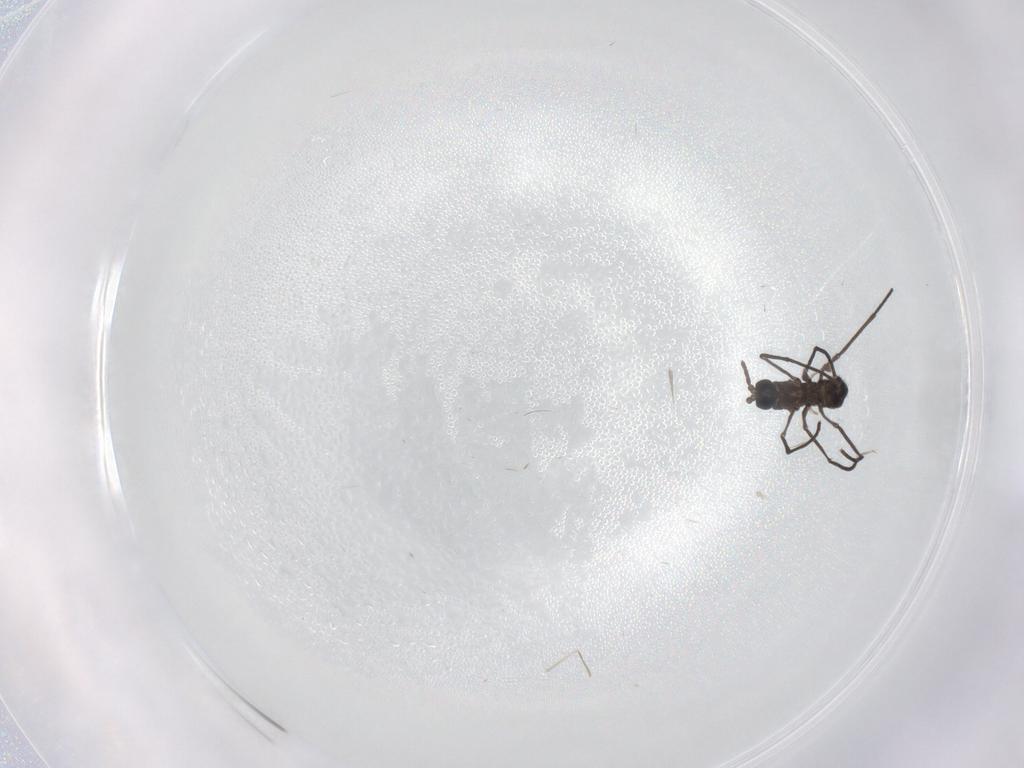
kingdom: Animalia
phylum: Arthropoda
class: Insecta
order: Diptera
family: Sciaridae
